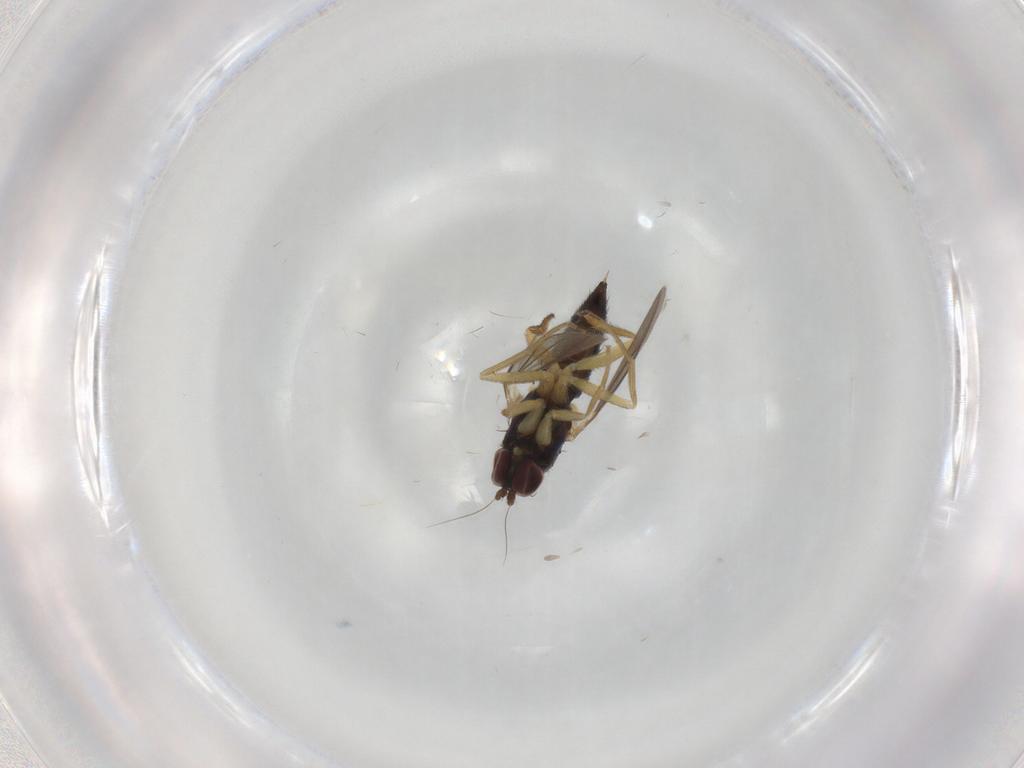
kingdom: Animalia
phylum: Arthropoda
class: Insecta
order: Diptera
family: Dolichopodidae
